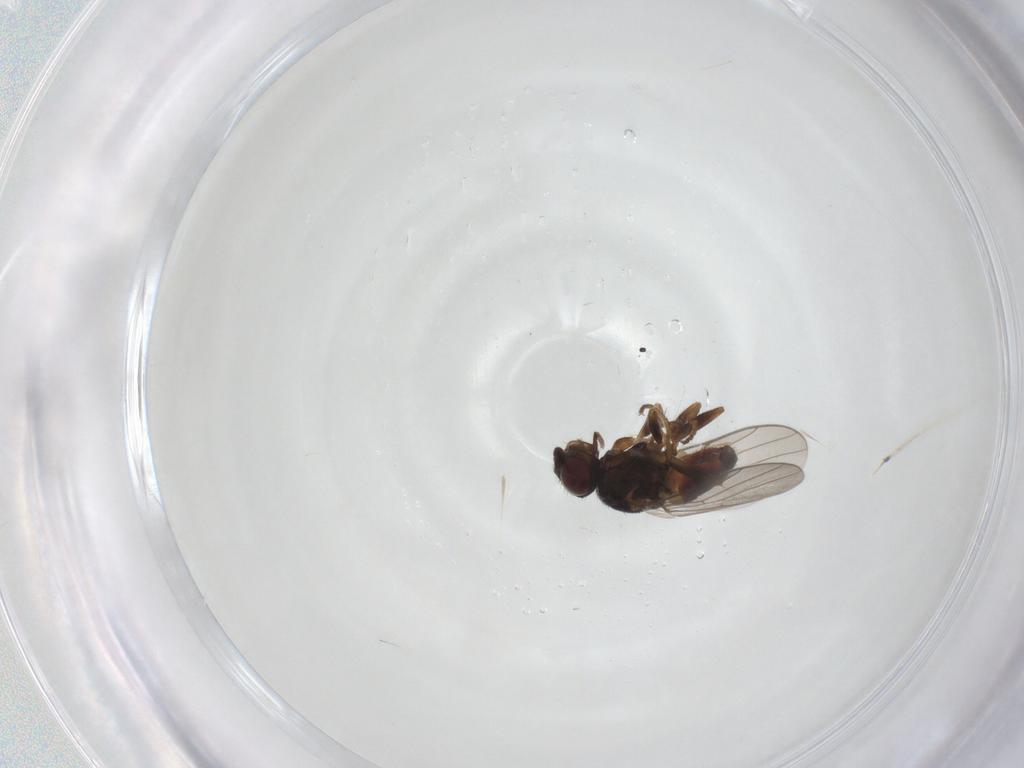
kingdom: Animalia
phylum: Arthropoda
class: Insecta
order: Diptera
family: Chloropidae
